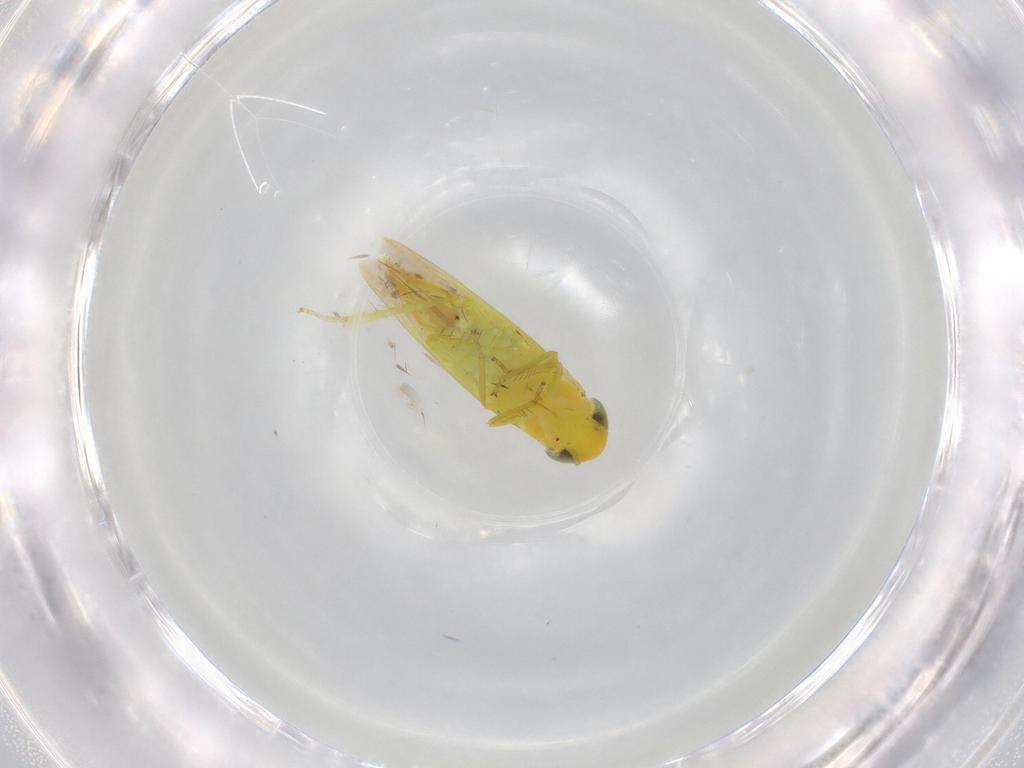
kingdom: Animalia
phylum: Arthropoda
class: Insecta
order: Hemiptera
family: Cicadellidae
